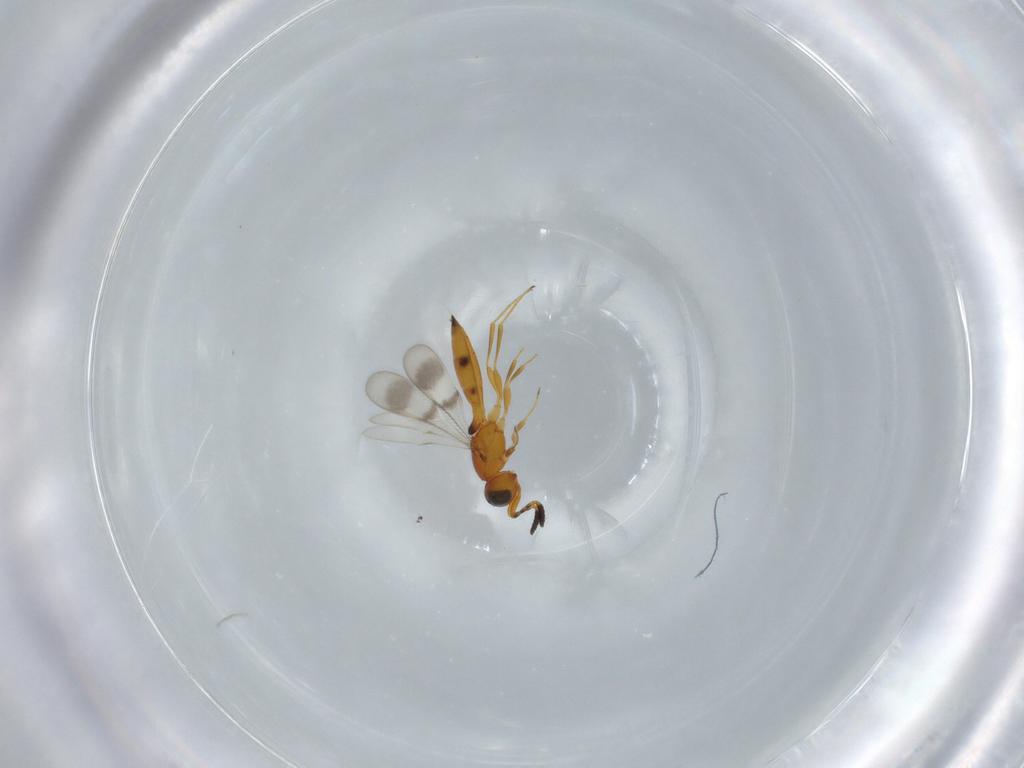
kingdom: Animalia
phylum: Arthropoda
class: Insecta
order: Hymenoptera
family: Scelionidae
